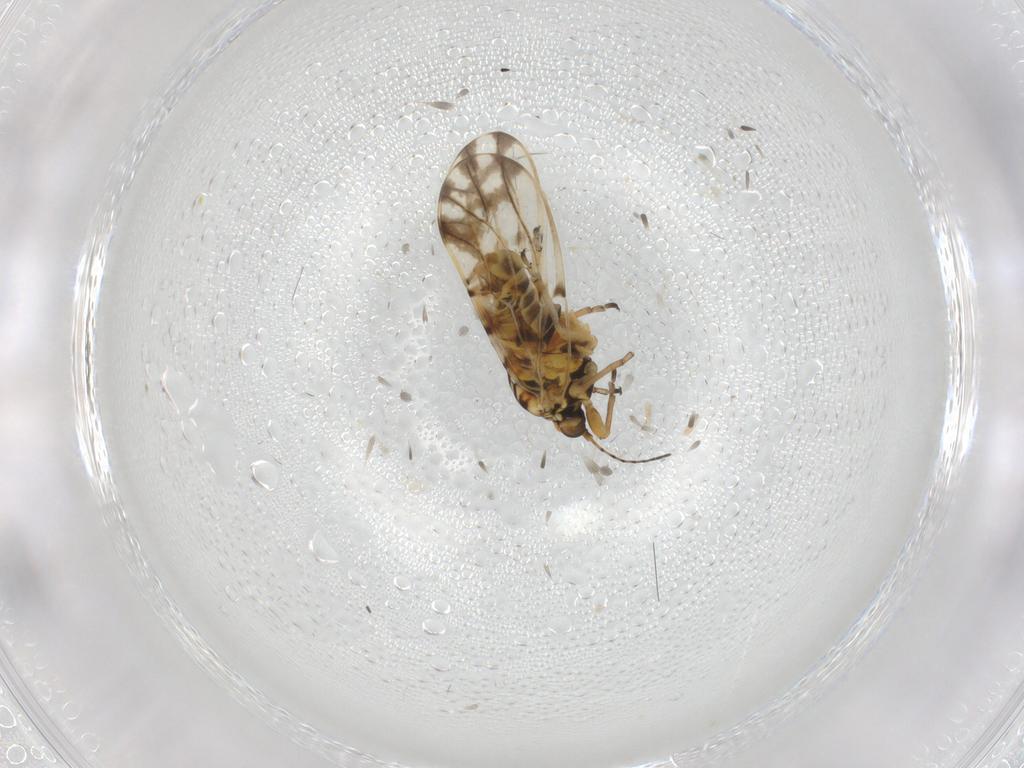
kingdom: Animalia
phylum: Arthropoda
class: Insecta
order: Hemiptera
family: Psylloidea_incertae_sedis
